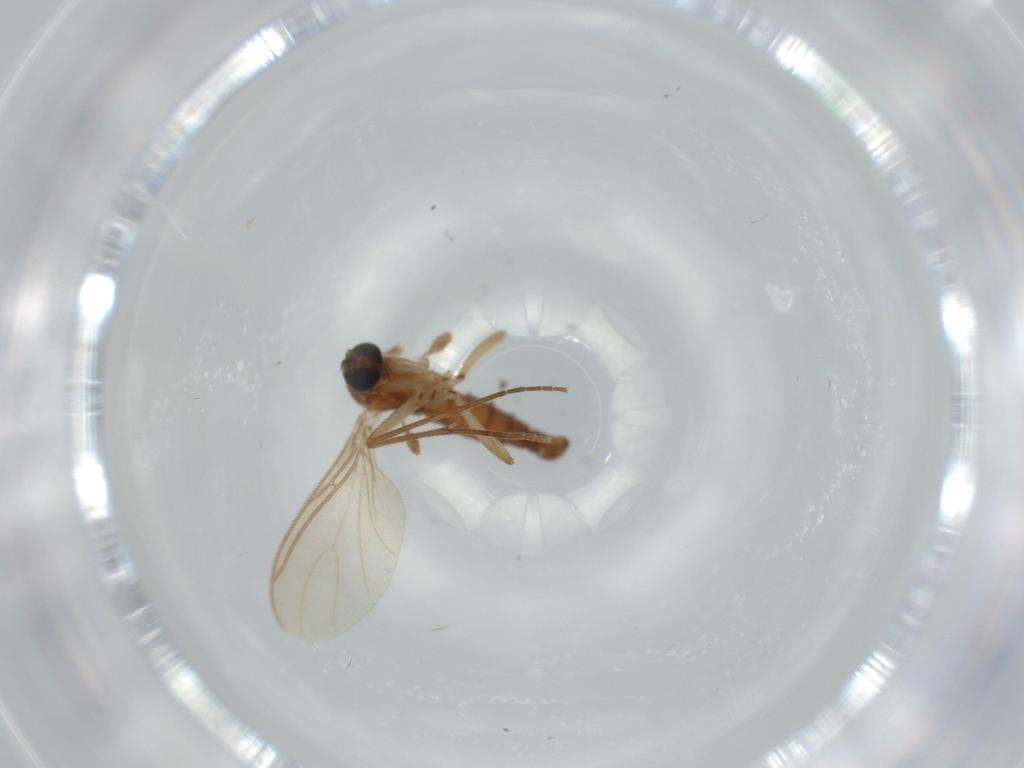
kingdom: Animalia
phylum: Arthropoda
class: Insecta
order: Diptera
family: Sphaeroceridae
